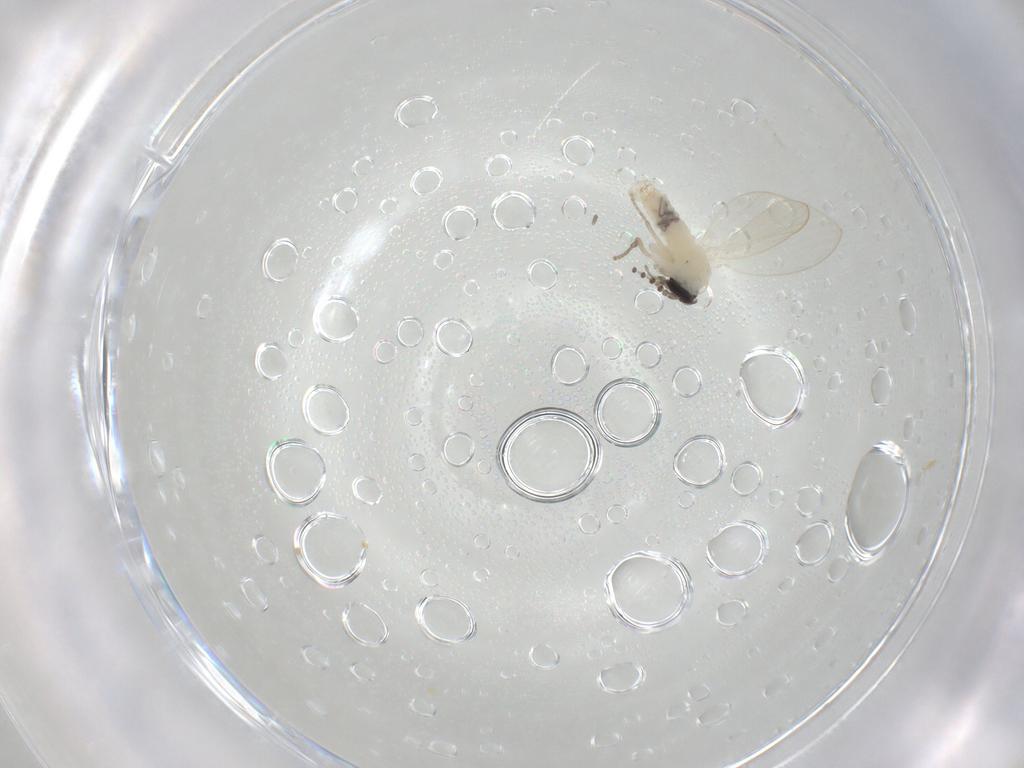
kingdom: Animalia
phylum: Arthropoda
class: Insecta
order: Diptera
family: Psychodidae
